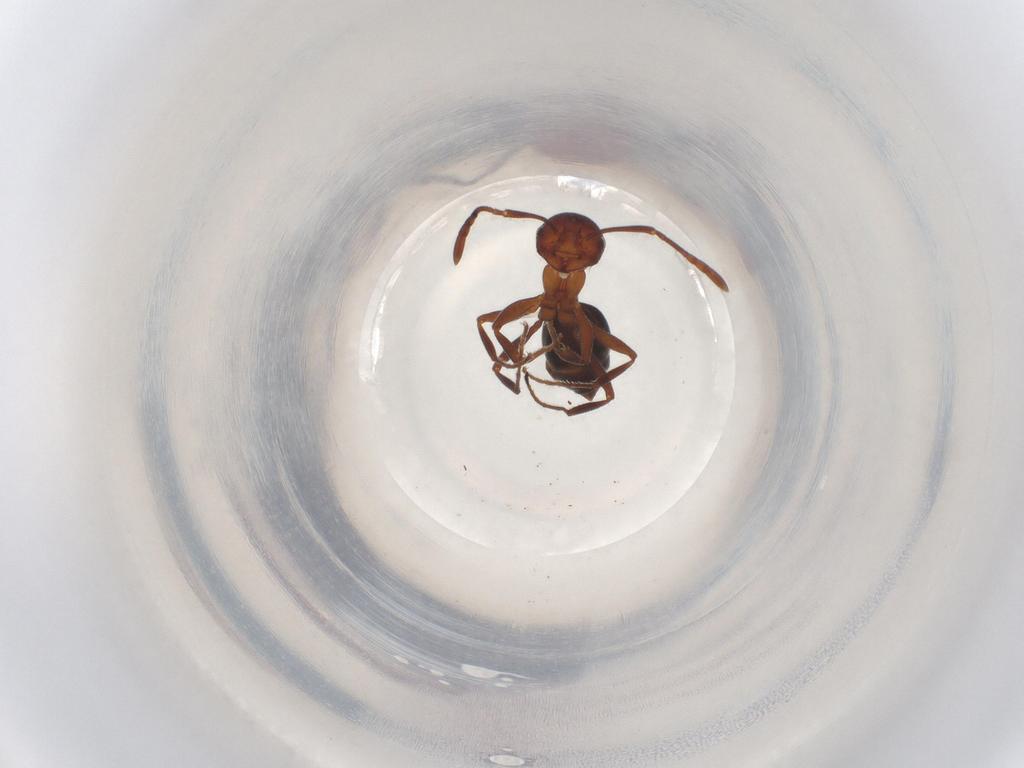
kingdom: Animalia
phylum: Arthropoda
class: Insecta
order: Hymenoptera
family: Formicidae
